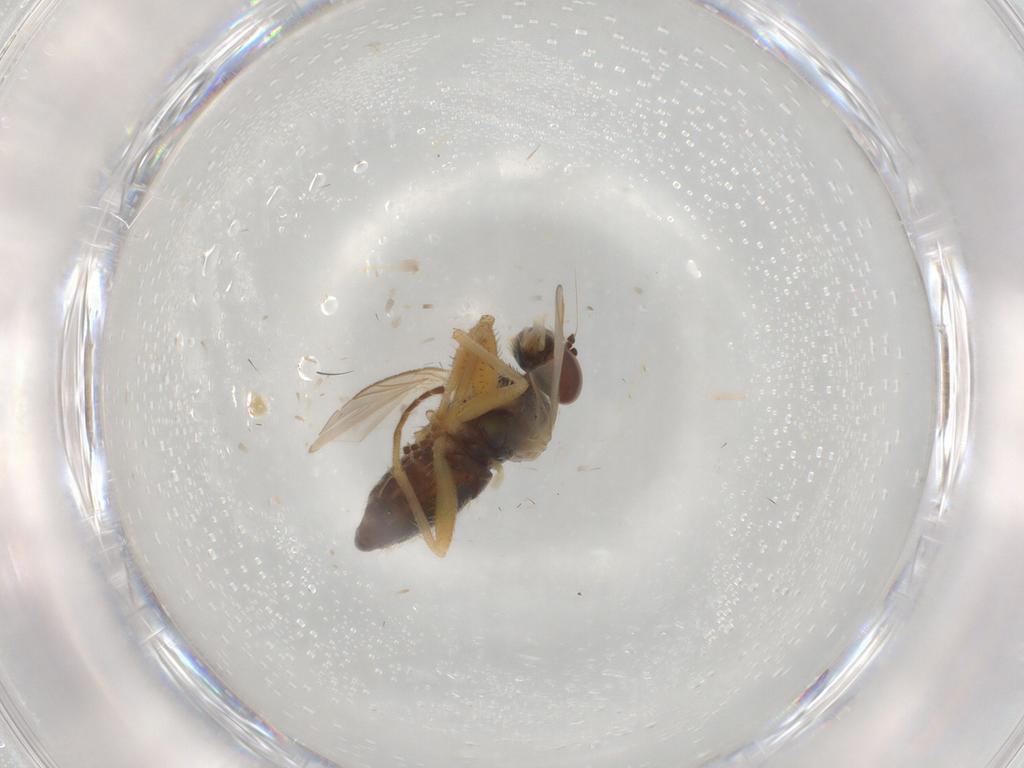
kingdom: Animalia
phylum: Arthropoda
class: Insecta
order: Diptera
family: Dolichopodidae
